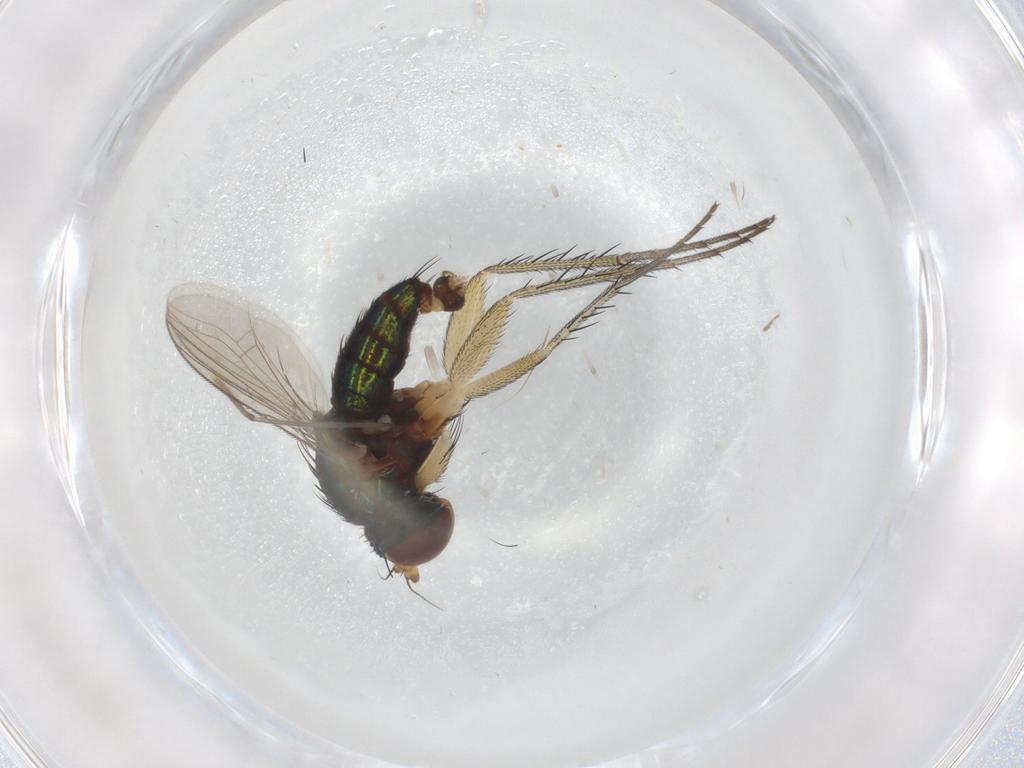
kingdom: Animalia
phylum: Arthropoda
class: Insecta
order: Diptera
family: Dolichopodidae
